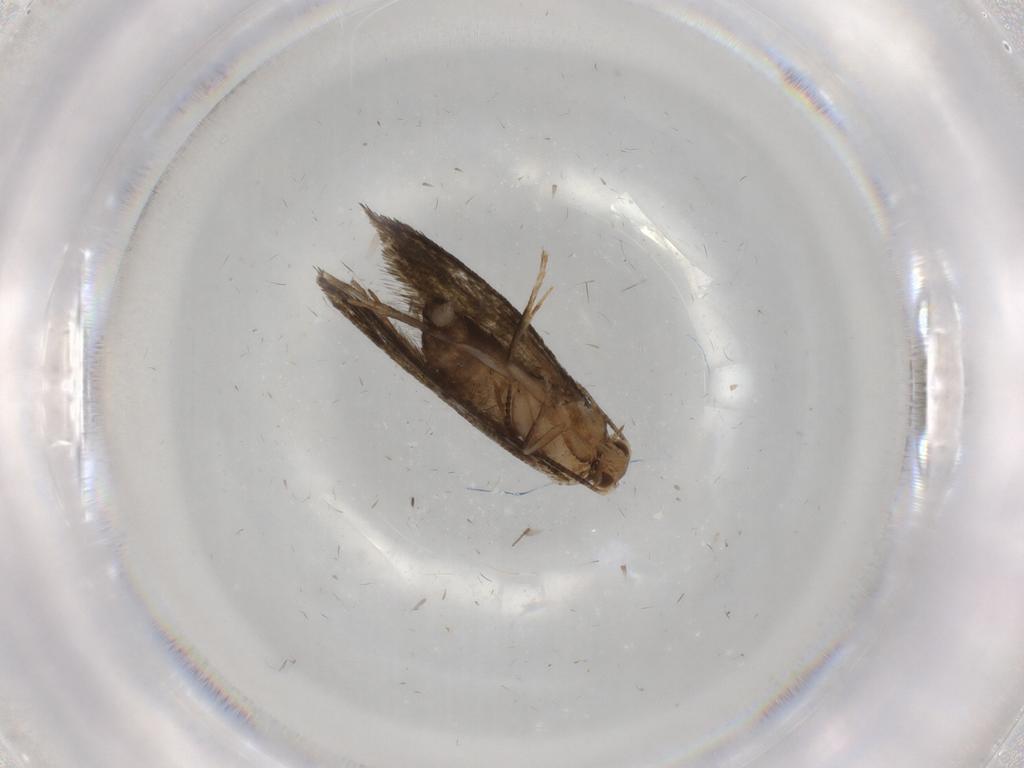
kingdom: Animalia
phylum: Arthropoda
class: Insecta
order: Lepidoptera
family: Tineidae
